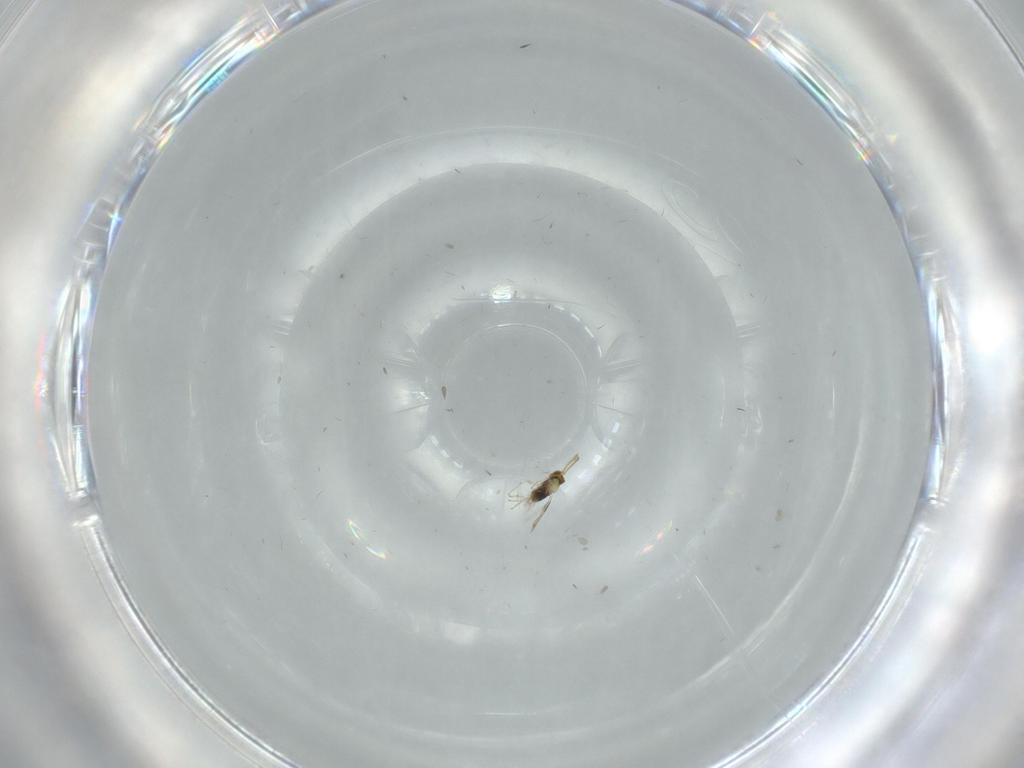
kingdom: Animalia
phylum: Arthropoda
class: Insecta
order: Hymenoptera
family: Aphelinidae
